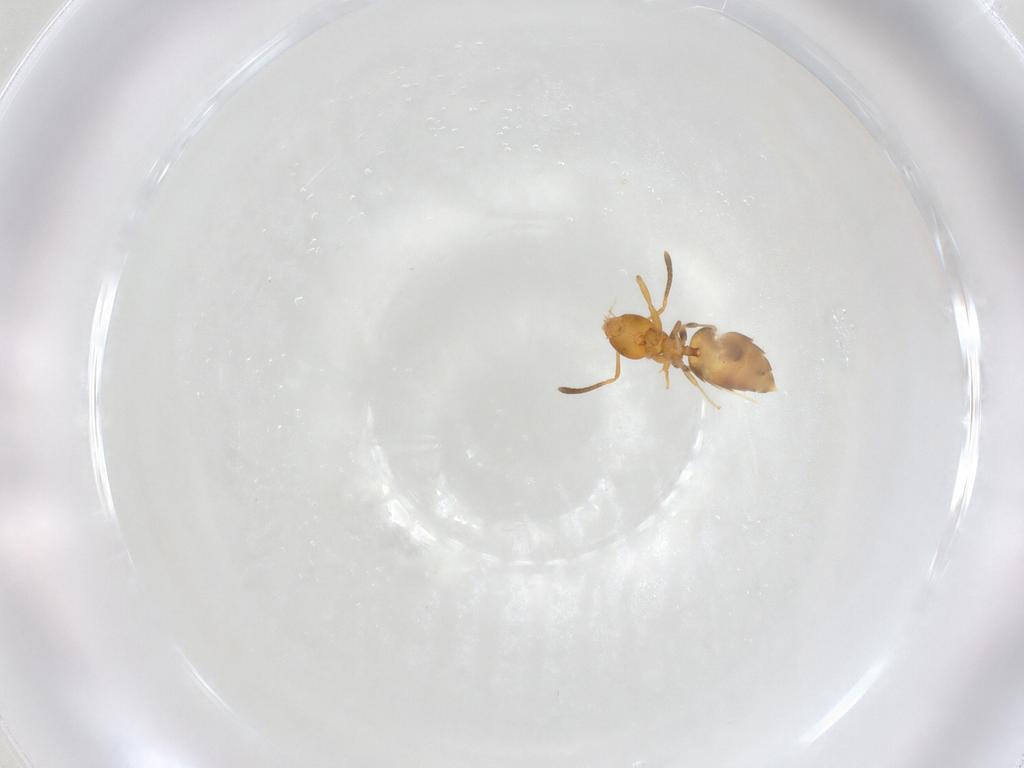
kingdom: Animalia
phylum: Arthropoda
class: Insecta
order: Hymenoptera
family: Formicidae
